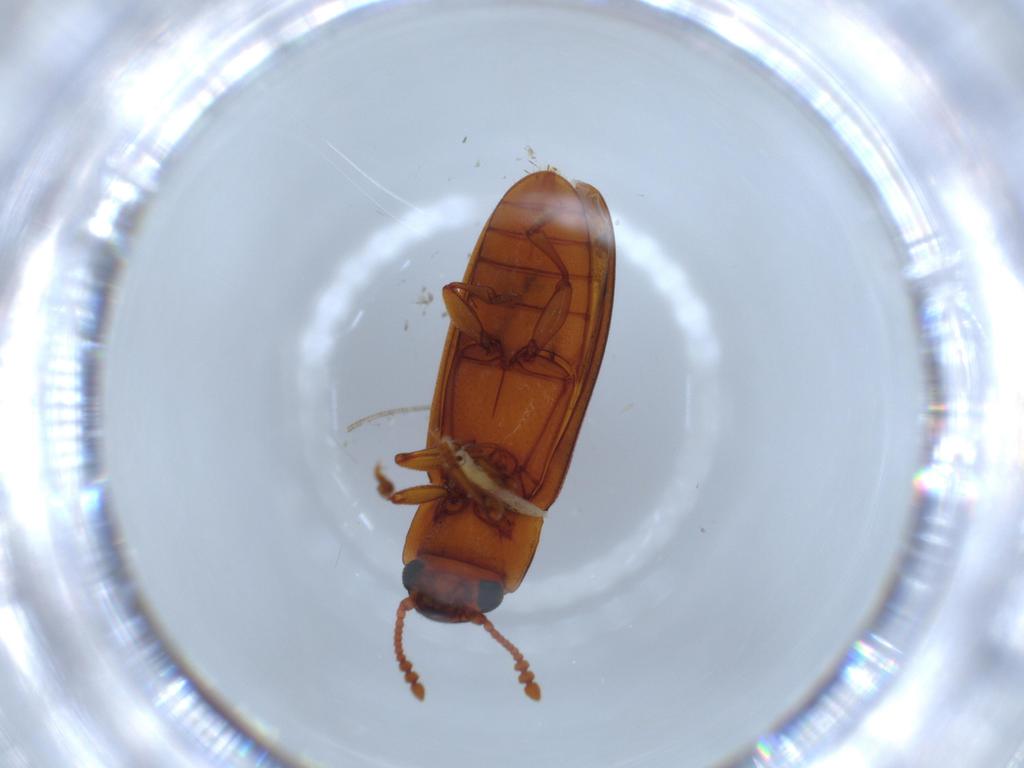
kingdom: Animalia
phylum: Arthropoda
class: Insecta
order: Coleoptera
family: Erotylidae
